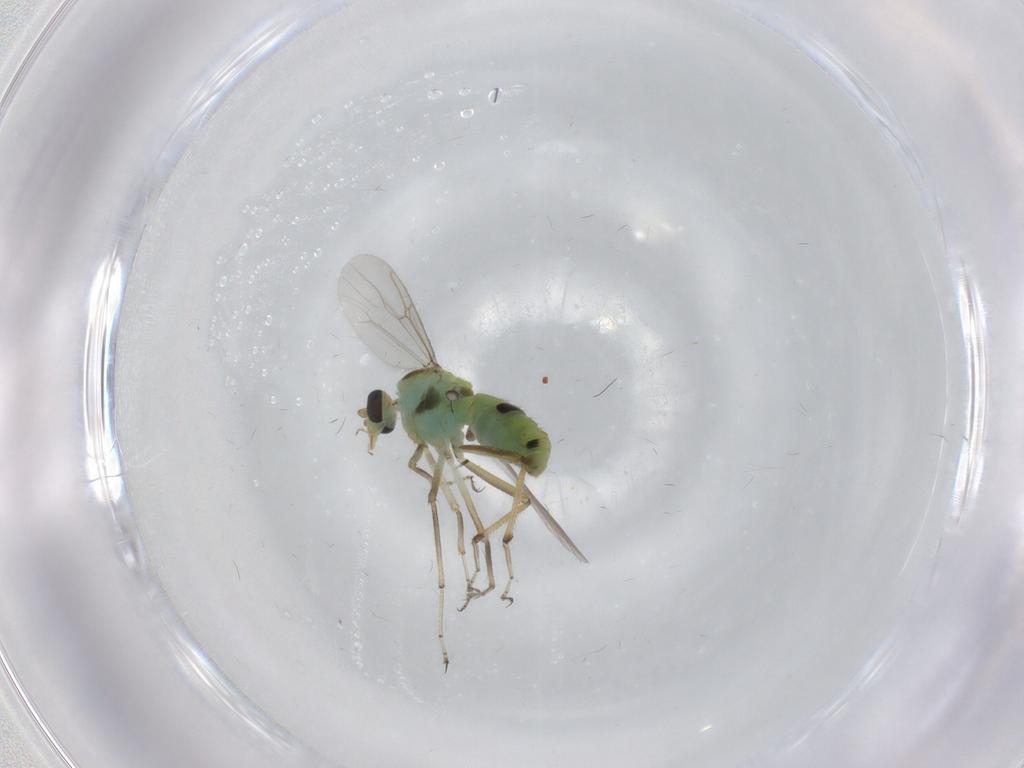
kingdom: Animalia
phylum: Arthropoda
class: Insecta
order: Diptera
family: Ceratopogonidae
